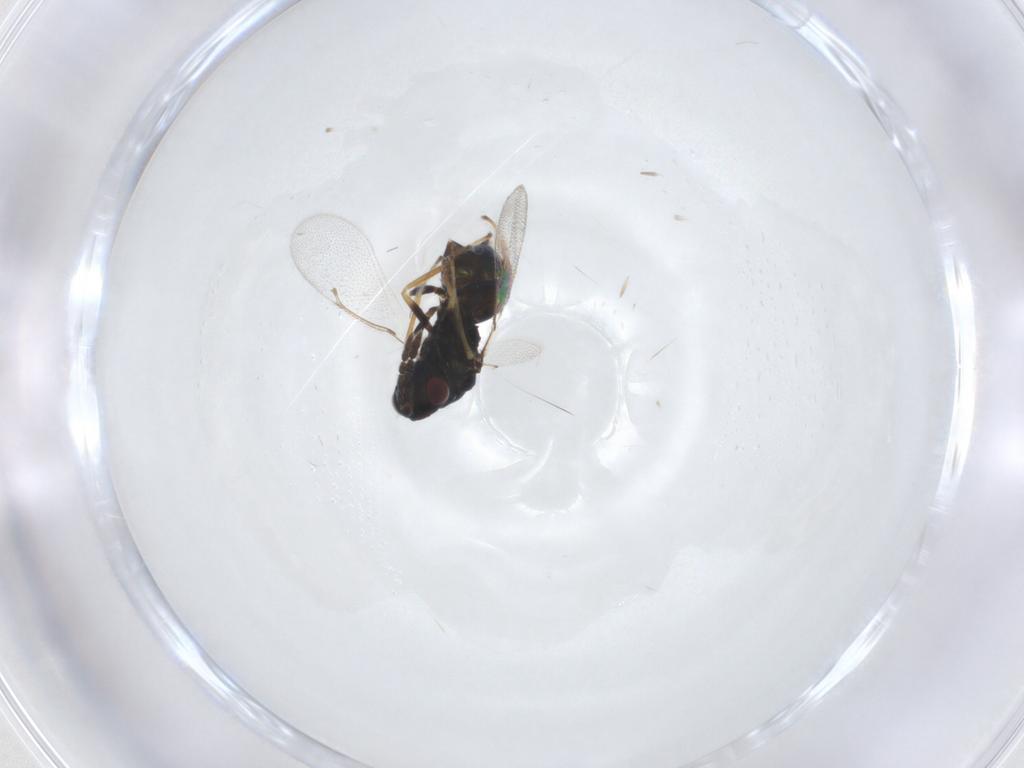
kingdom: Animalia
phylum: Arthropoda
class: Insecta
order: Hymenoptera
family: Eulophidae
